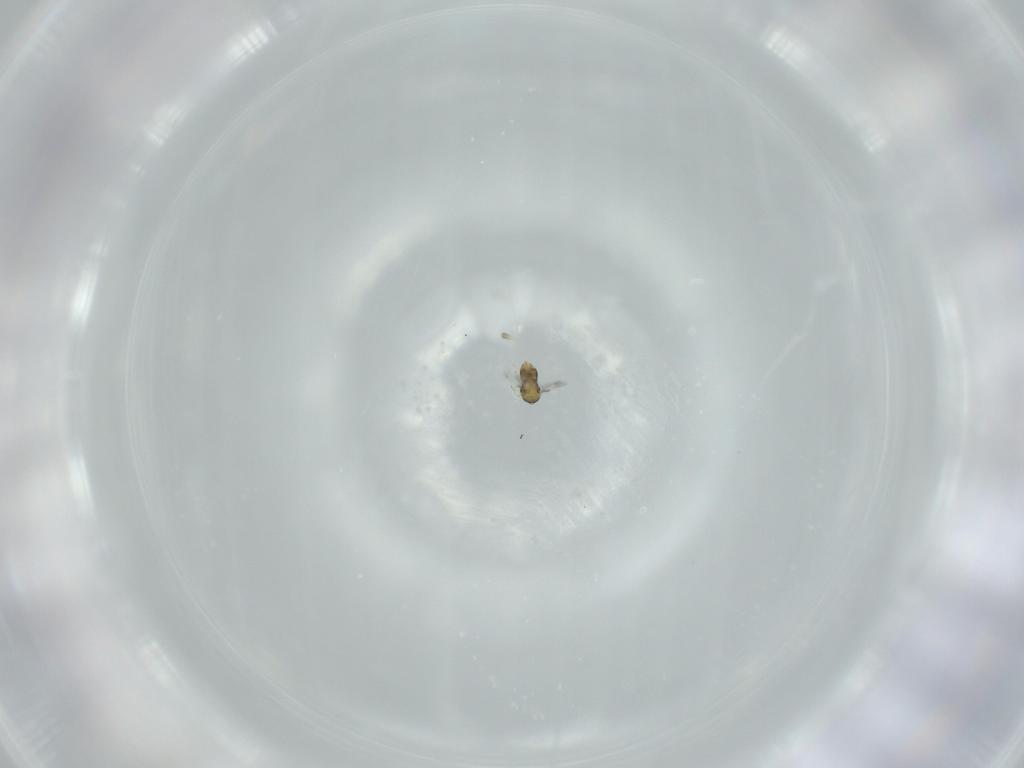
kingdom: Animalia
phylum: Arthropoda
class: Insecta
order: Hymenoptera
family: Aphelinidae
